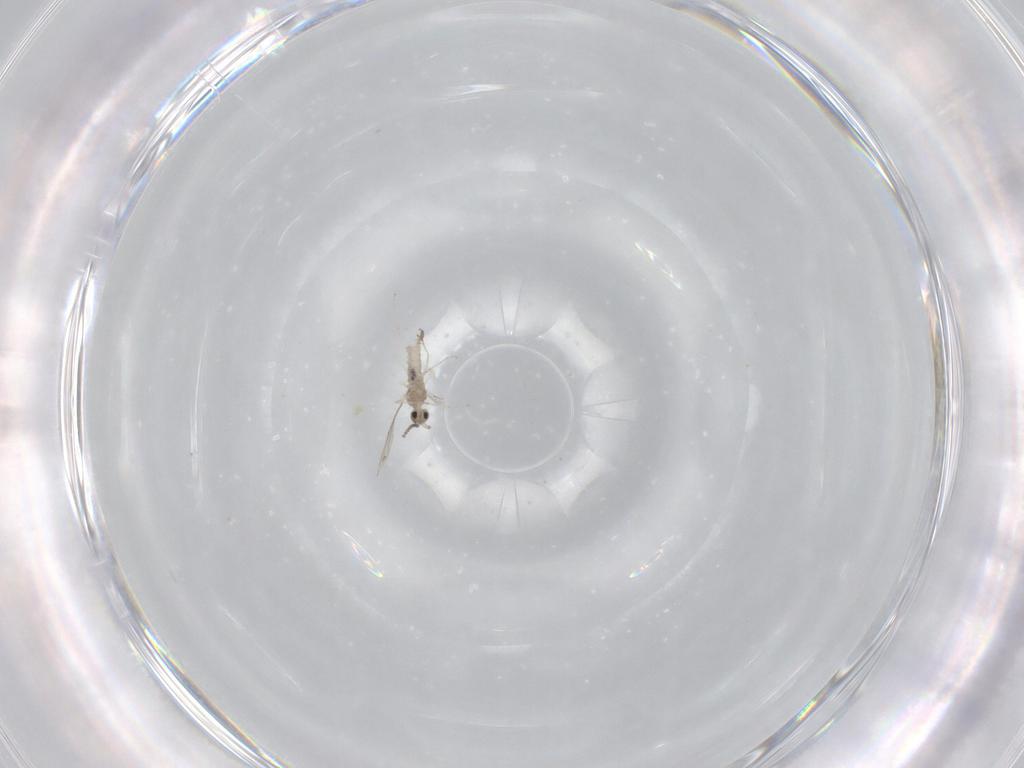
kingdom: Animalia
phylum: Arthropoda
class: Insecta
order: Diptera
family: Cecidomyiidae
